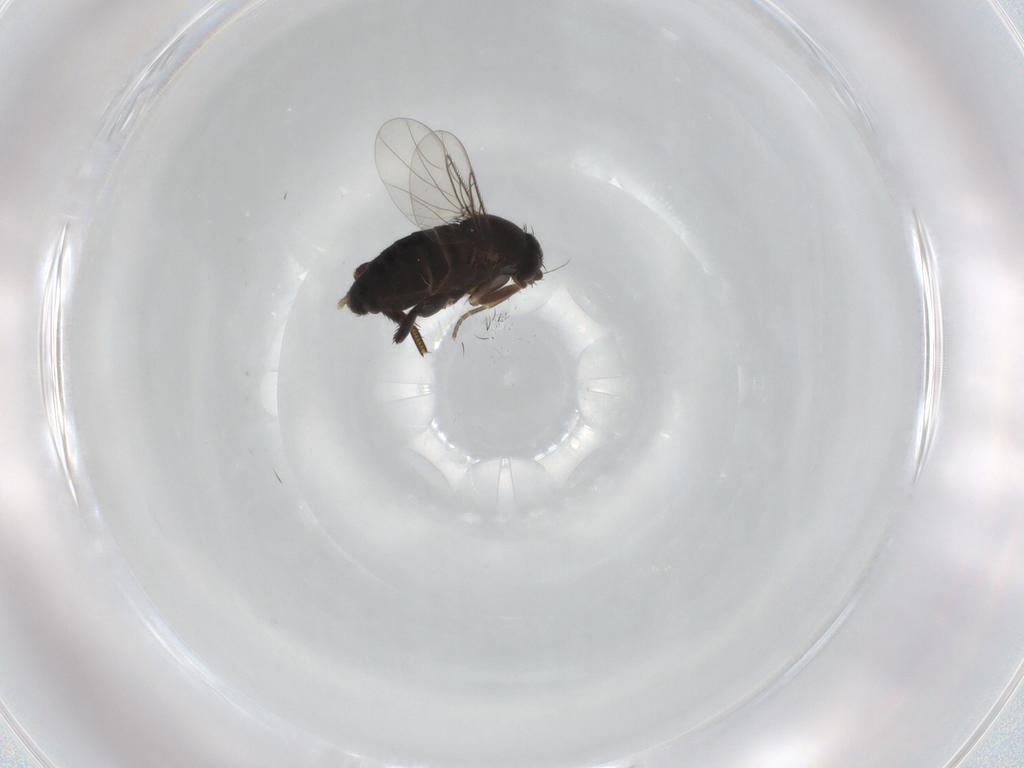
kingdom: Animalia
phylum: Arthropoda
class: Insecta
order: Diptera
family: Phoridae
